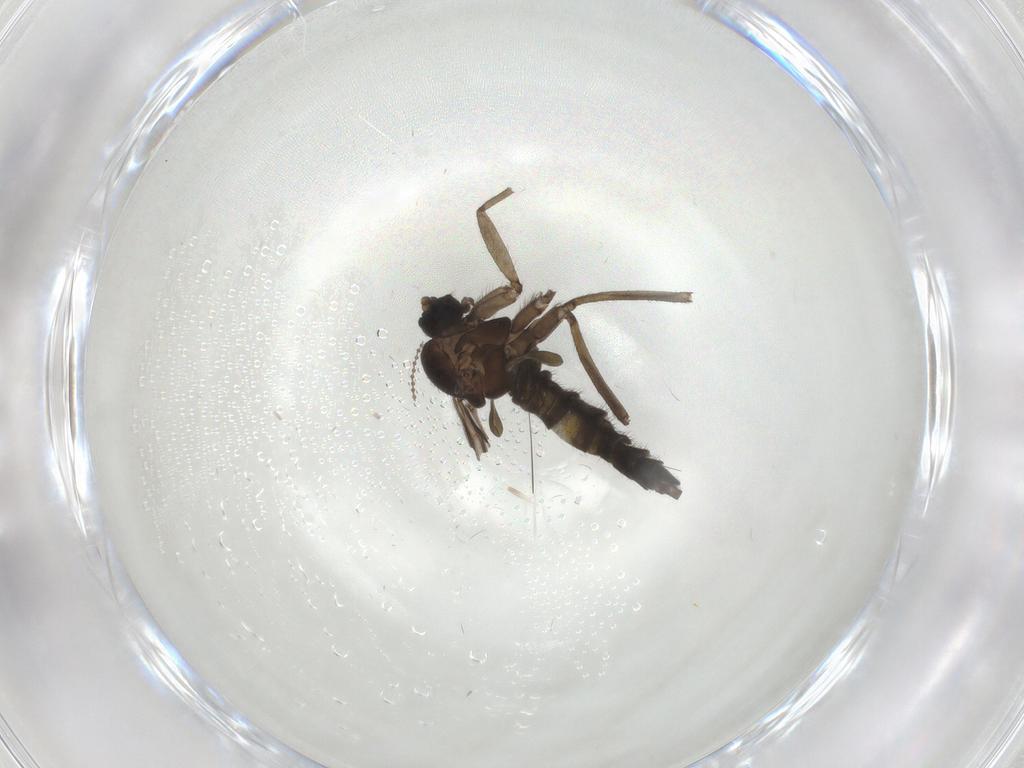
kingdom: Animalia
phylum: Arthropoda
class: Insecta
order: Diptera
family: Sciaridae
